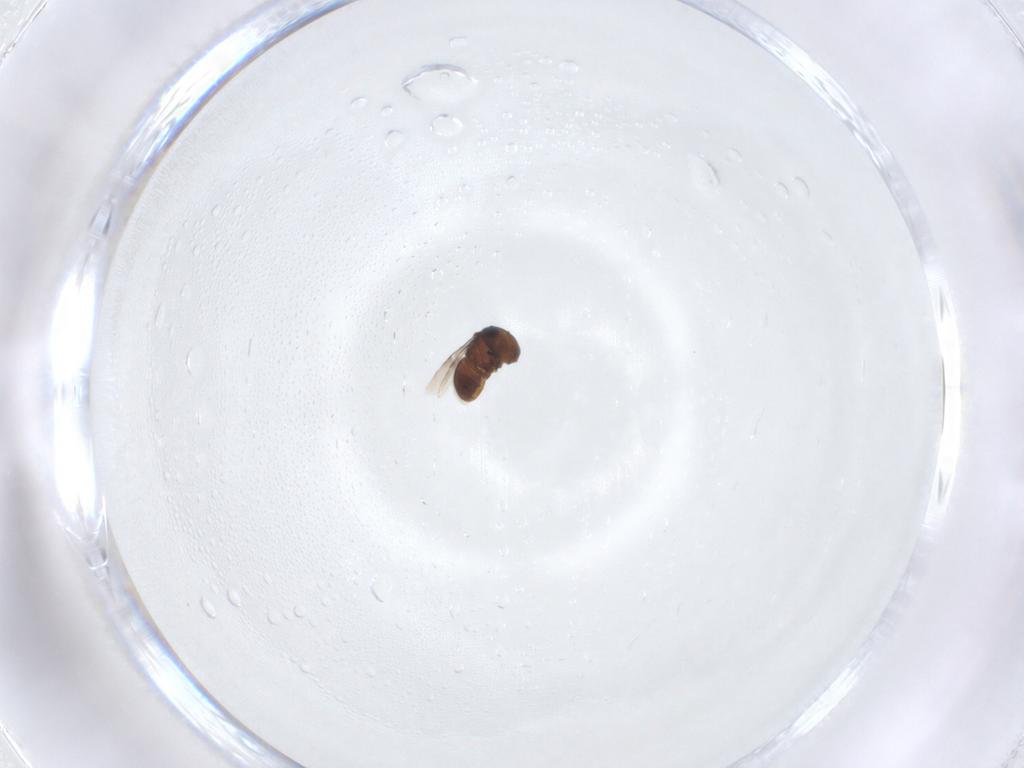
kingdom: Animalia
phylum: Arthropoda
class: Insecta
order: Hymenoptera
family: Scelionidae
